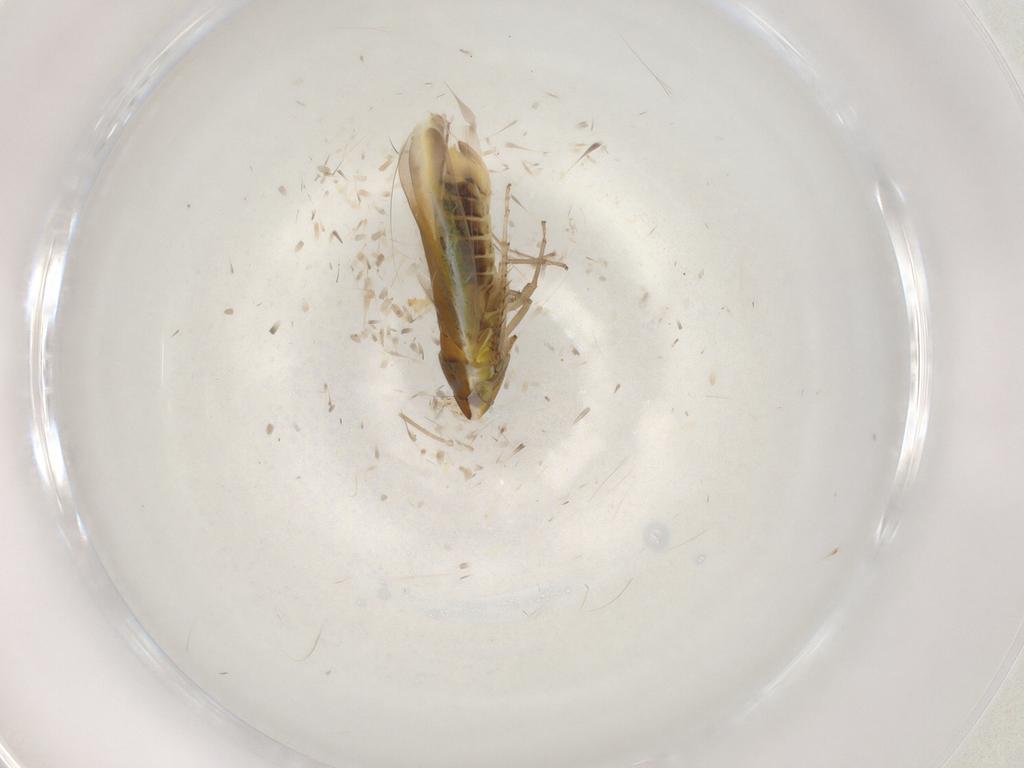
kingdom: Animalia
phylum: Arthropoda
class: Insecta
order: Hemiptera
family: Cicadellidae
